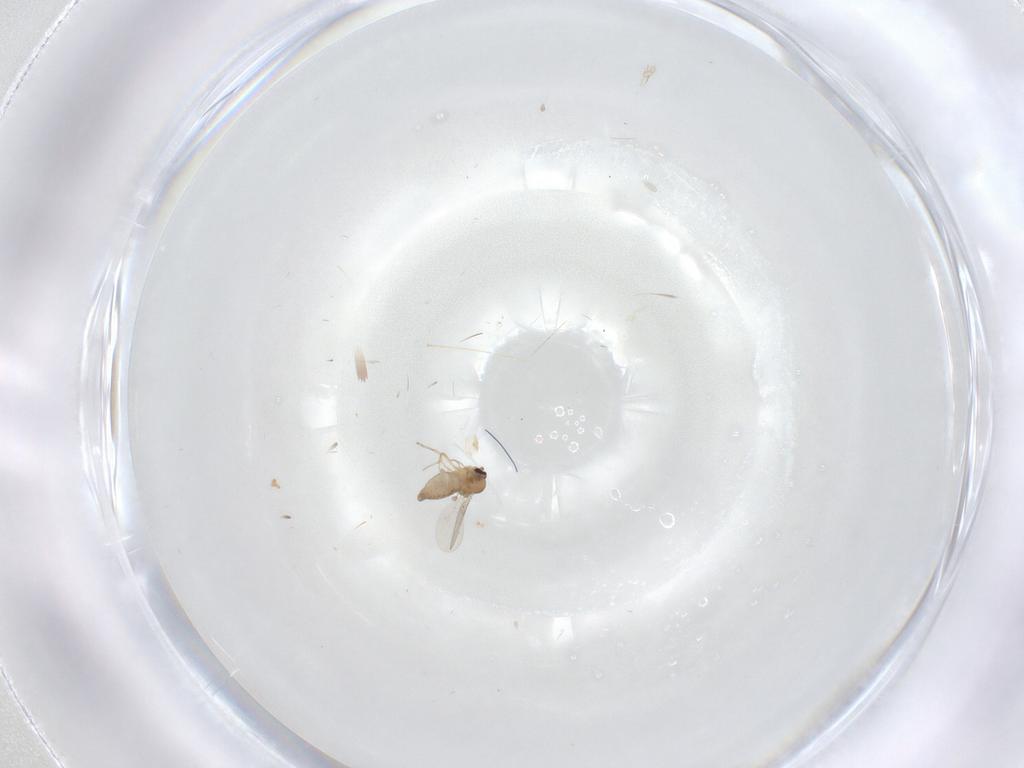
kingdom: Animalia
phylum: Arthropoda
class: Insecta
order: Diptera
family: Ceratopogonidae
